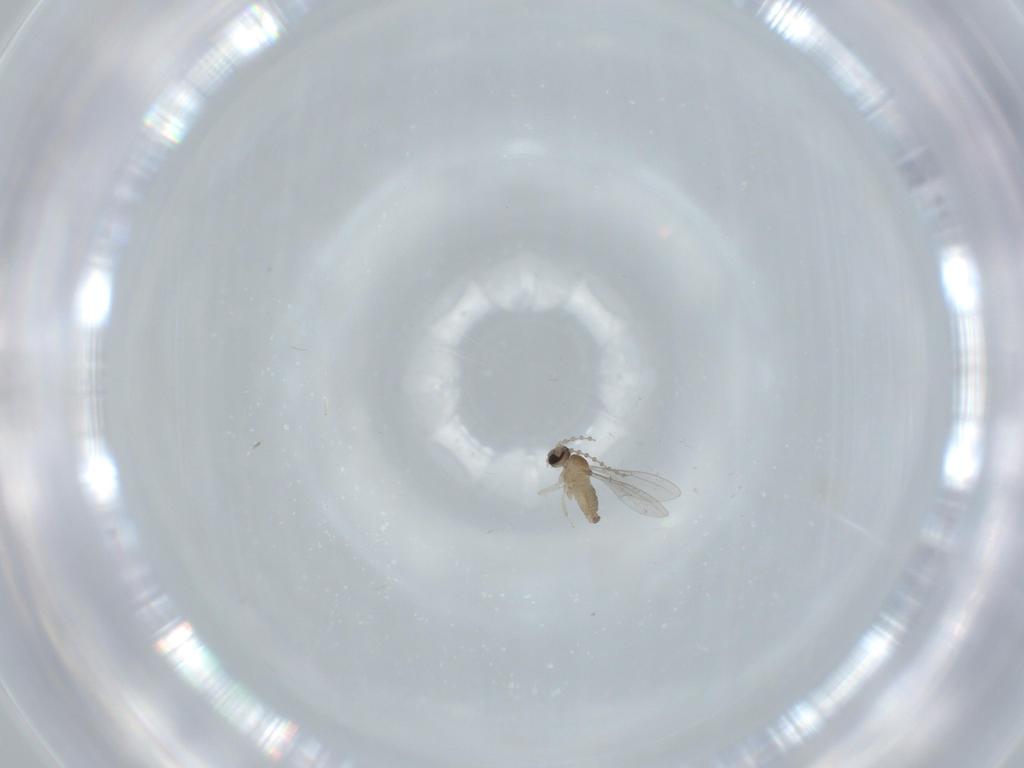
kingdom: Animalia
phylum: Arthropoda
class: Insecta
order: Diptera
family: Cecidomyiidae
